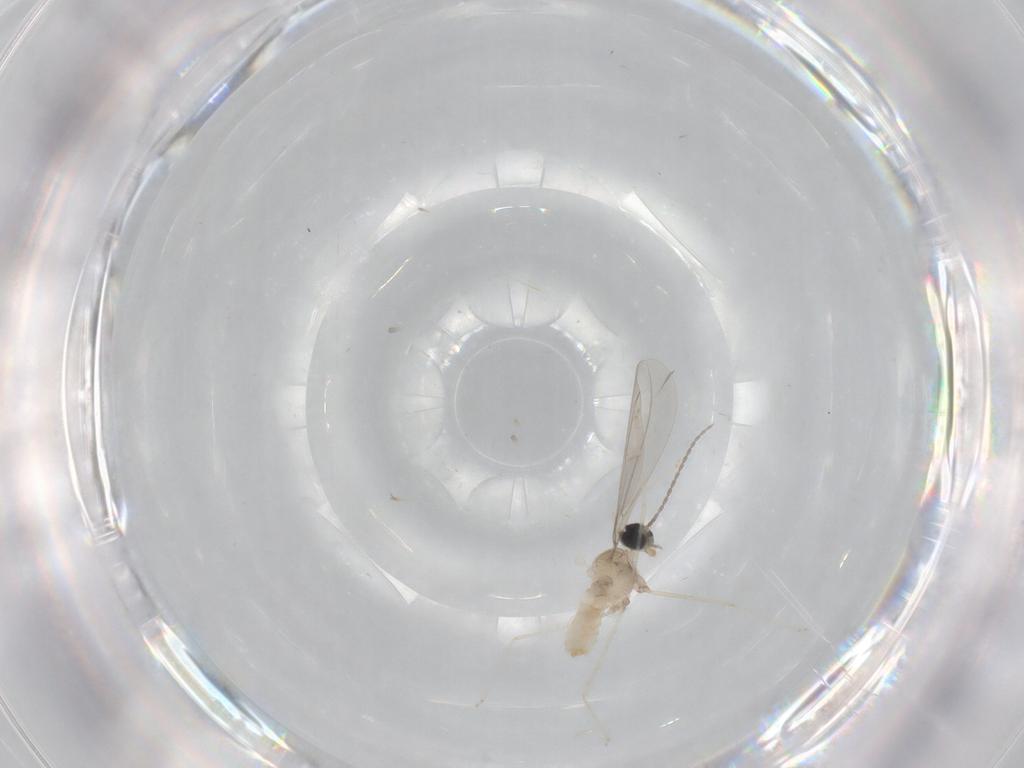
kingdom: Animalia
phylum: Arthropoda
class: Insecta
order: Diptera
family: Cecidomyiidae
